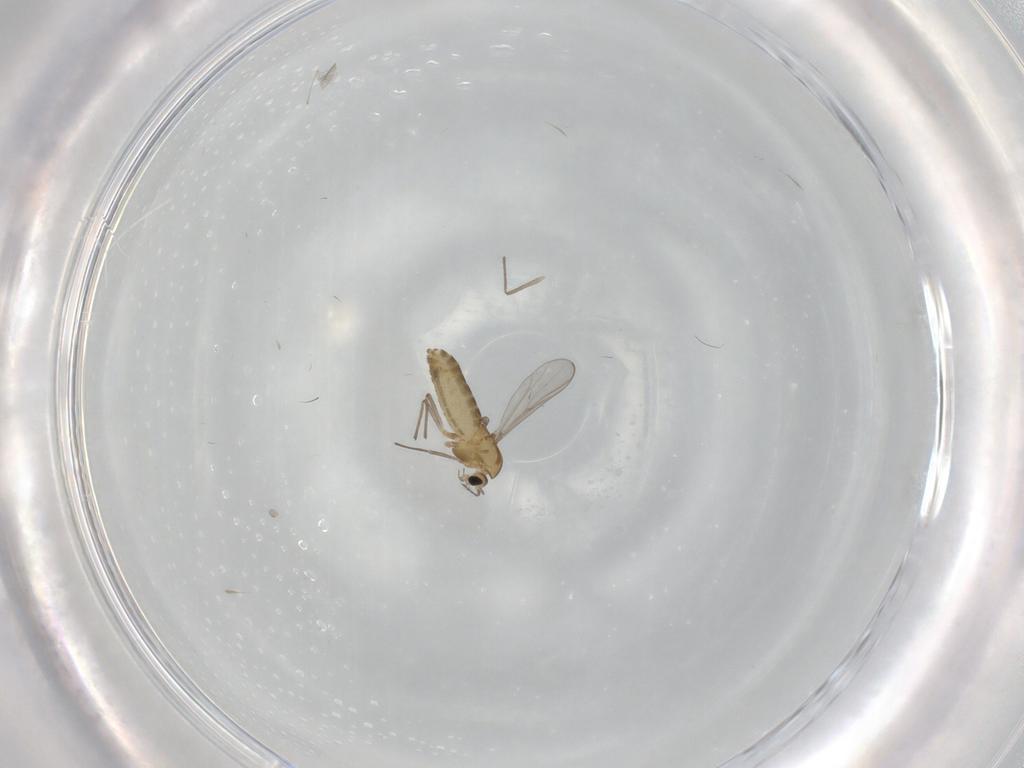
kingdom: Animalia
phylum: Arthropoda
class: Insecta
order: Diptera
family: Chironomidae
